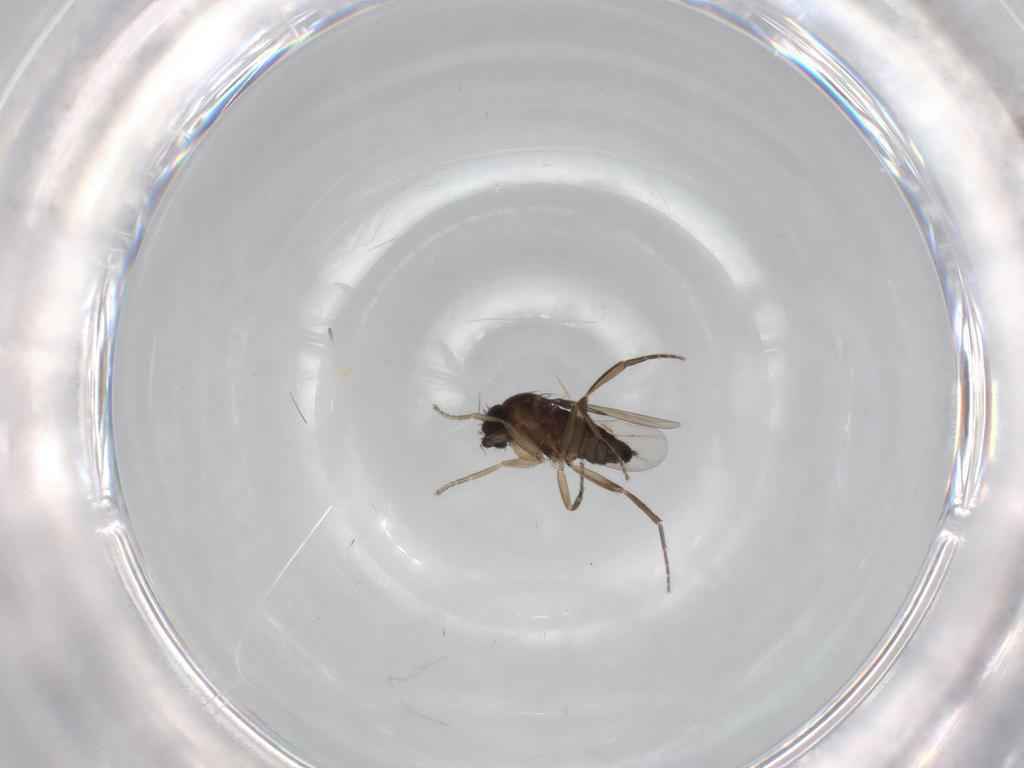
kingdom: Animalia
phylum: Arthropoda
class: Insecta
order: Diptera
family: Phoridae
